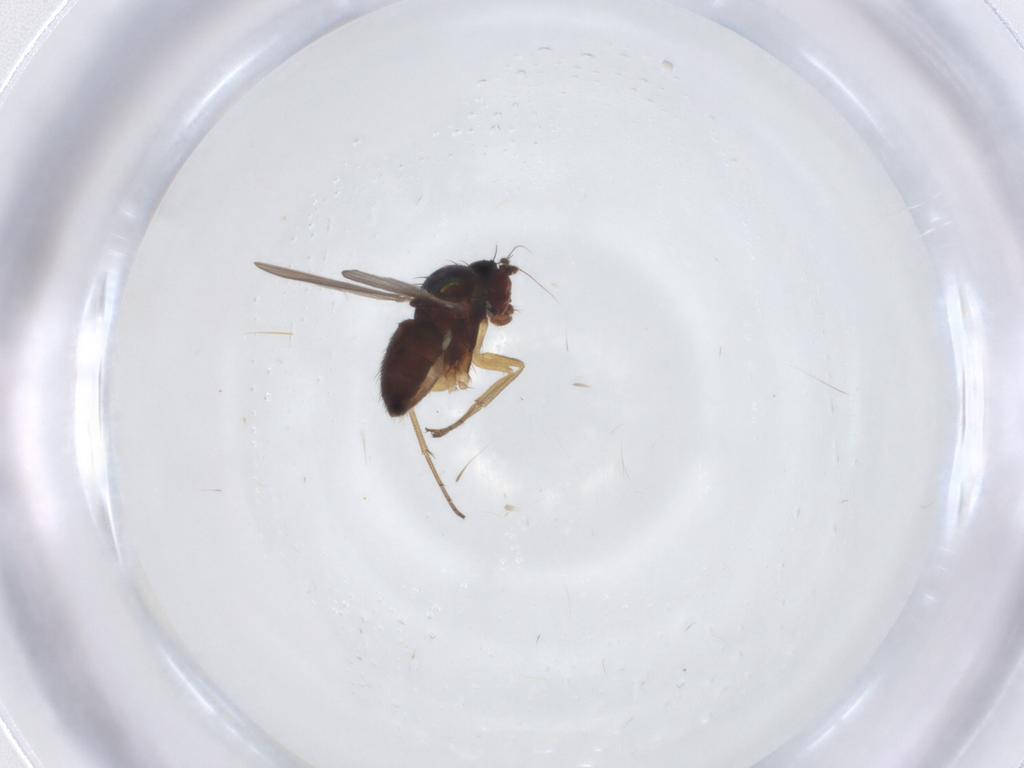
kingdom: Animalia
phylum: Arthropoda
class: Insecta
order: Diptera
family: Dolichopodidae
